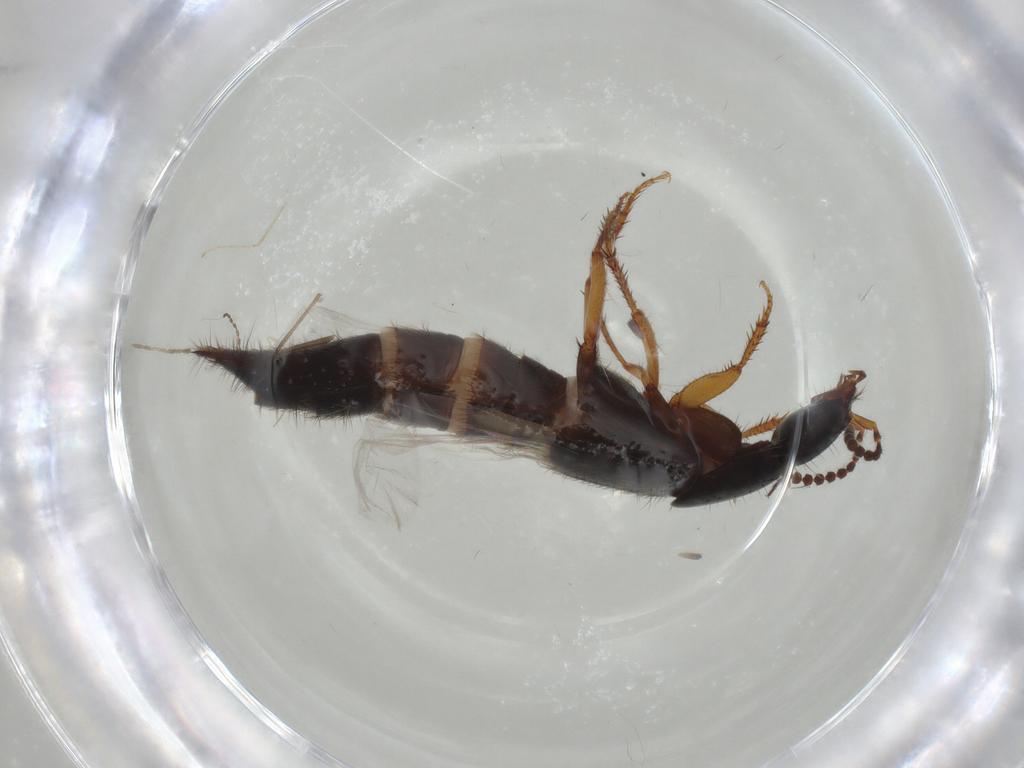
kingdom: Animalia
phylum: Arthropoda
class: Insecta
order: Coleoptera
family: Staphylinidae
